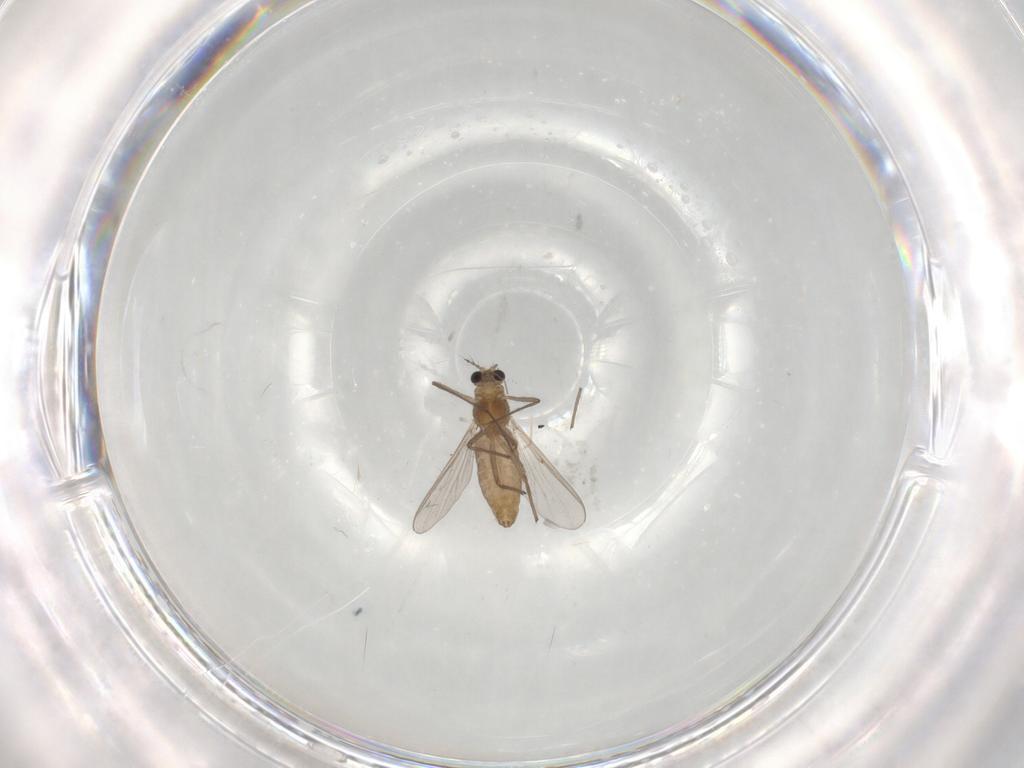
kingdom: Animalia
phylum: Arthropoda
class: Insecta
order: Diptera
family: Chironomidae
